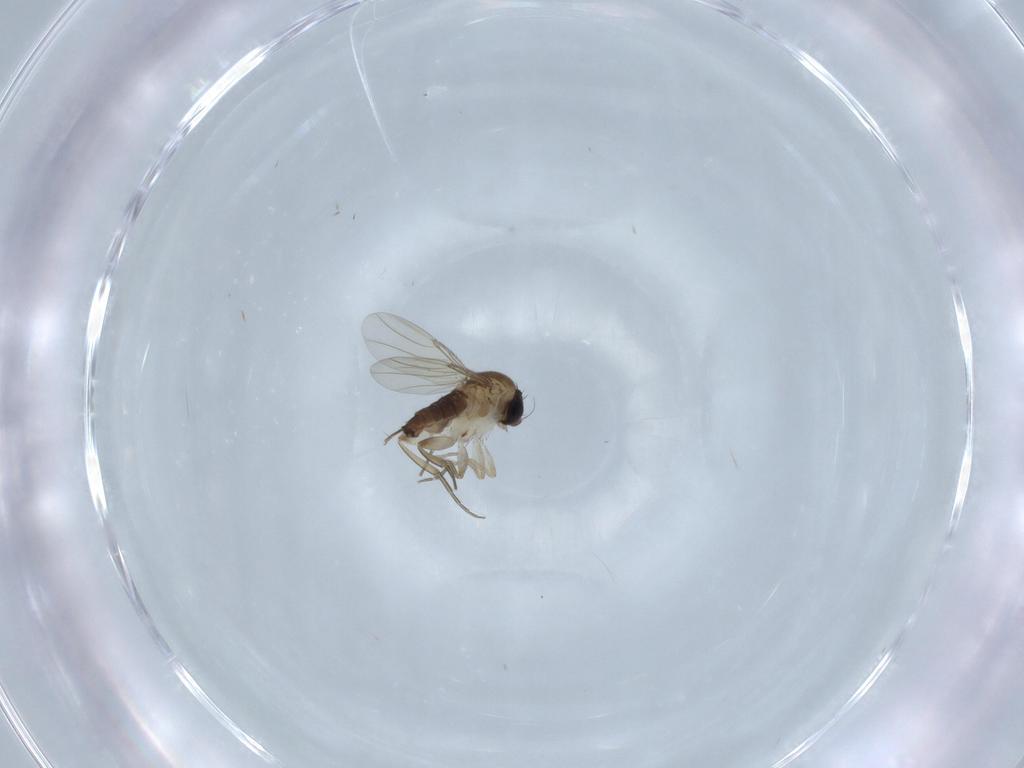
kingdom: Animalia
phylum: Arthropoda
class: Insecta
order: Diptera
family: Phoridae
